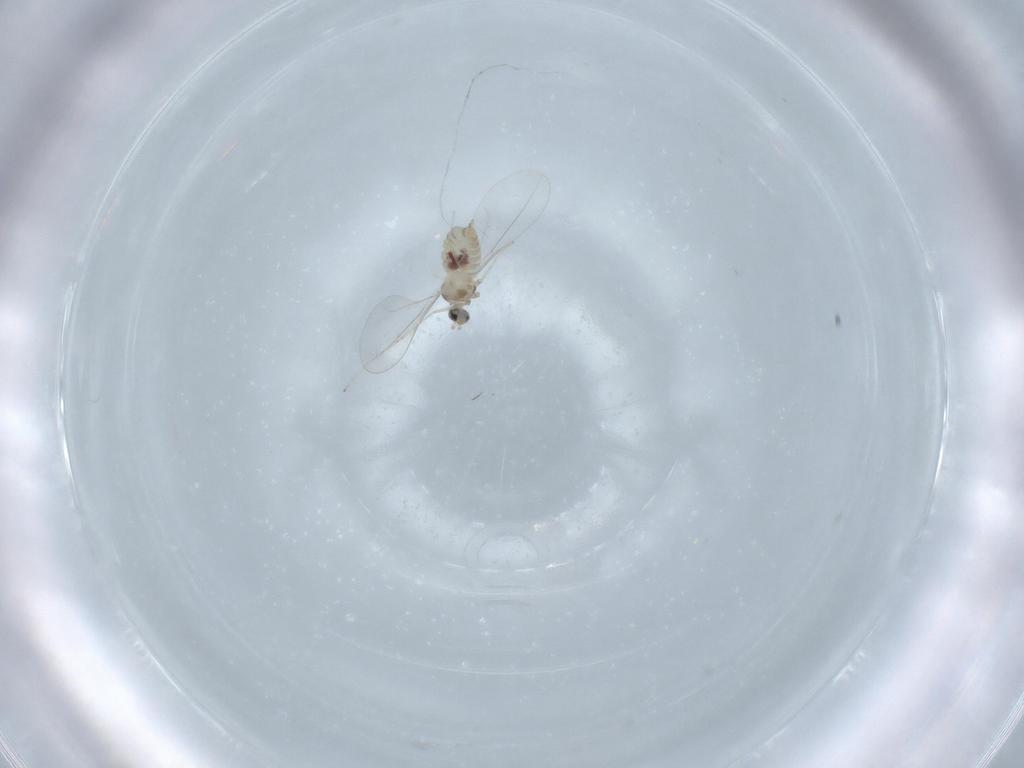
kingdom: Animalia
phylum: Arthropoda
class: Insecta
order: Diptera
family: Cecidomyiidae
